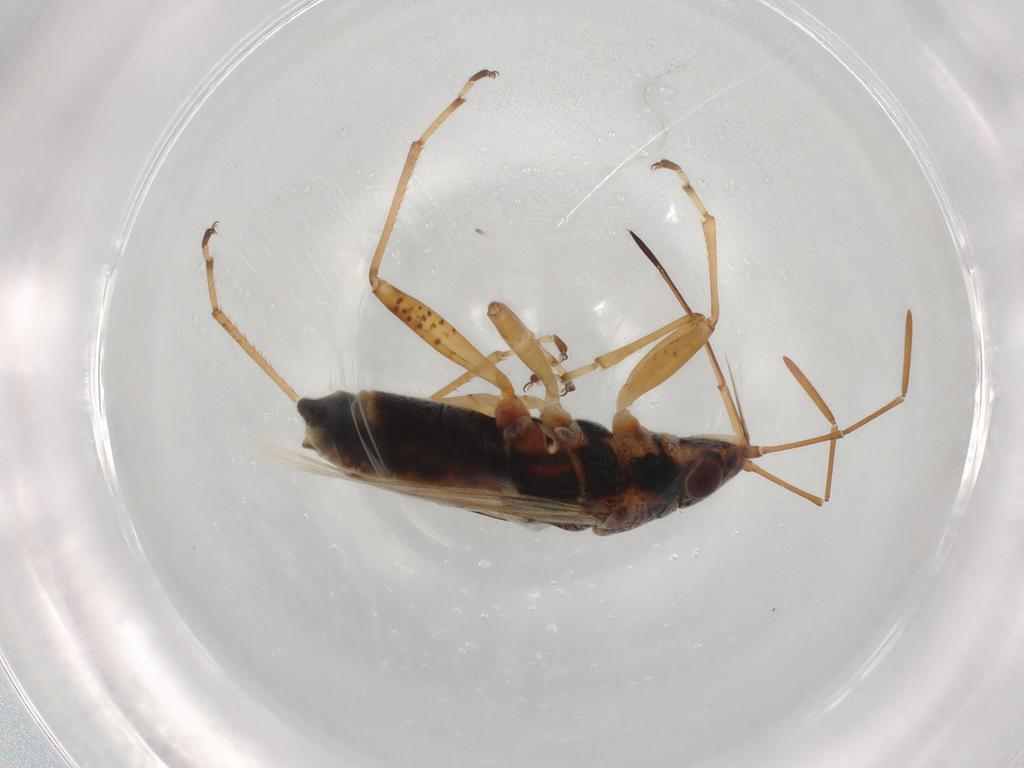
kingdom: Animalia
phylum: Arthropoda
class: Insecta
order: Hemiptera
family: Lygaeidae
